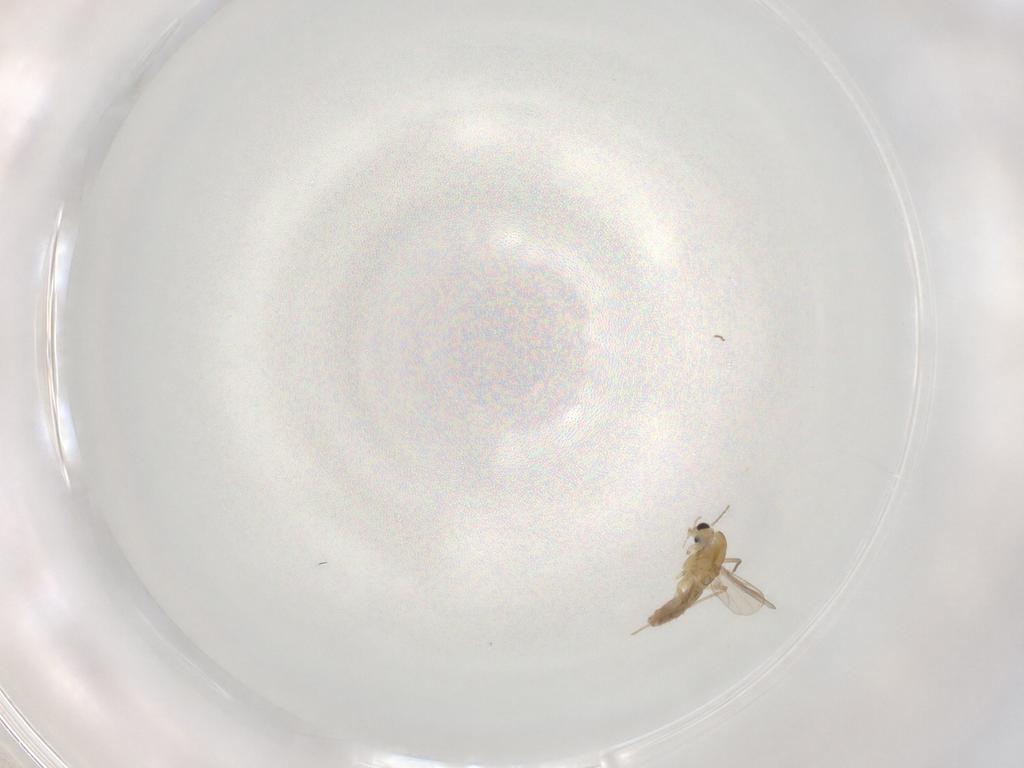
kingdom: Animalia
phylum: Arthropoda
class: Insecta
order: Diptera
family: Chironomidae
